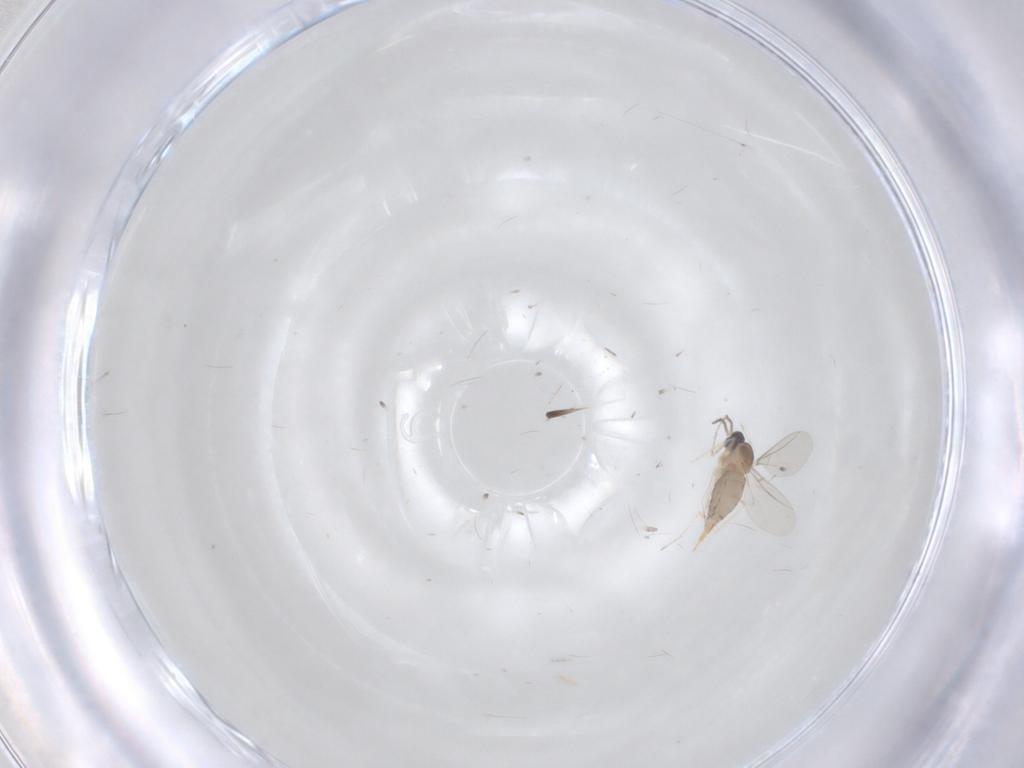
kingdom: Animalia
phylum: Arthropoda
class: Insecta
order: Diptera
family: Cecidomyiidae
